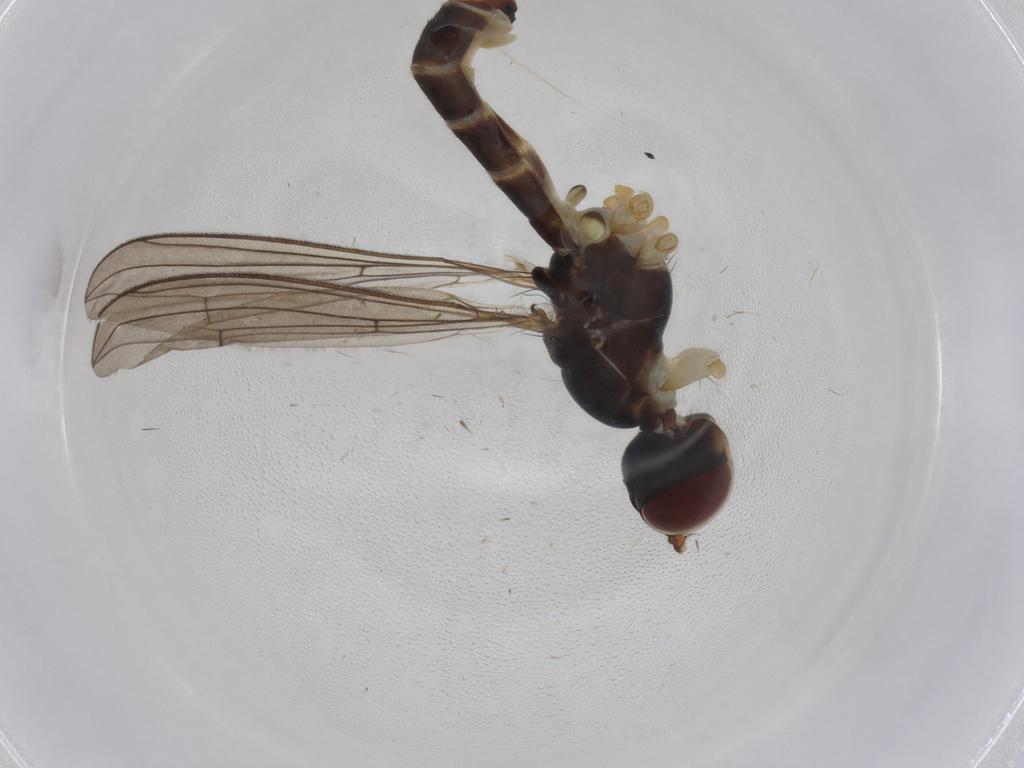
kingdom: Animalia
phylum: Arthropoda
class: Insecta
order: Diptera
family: Micropezidae
